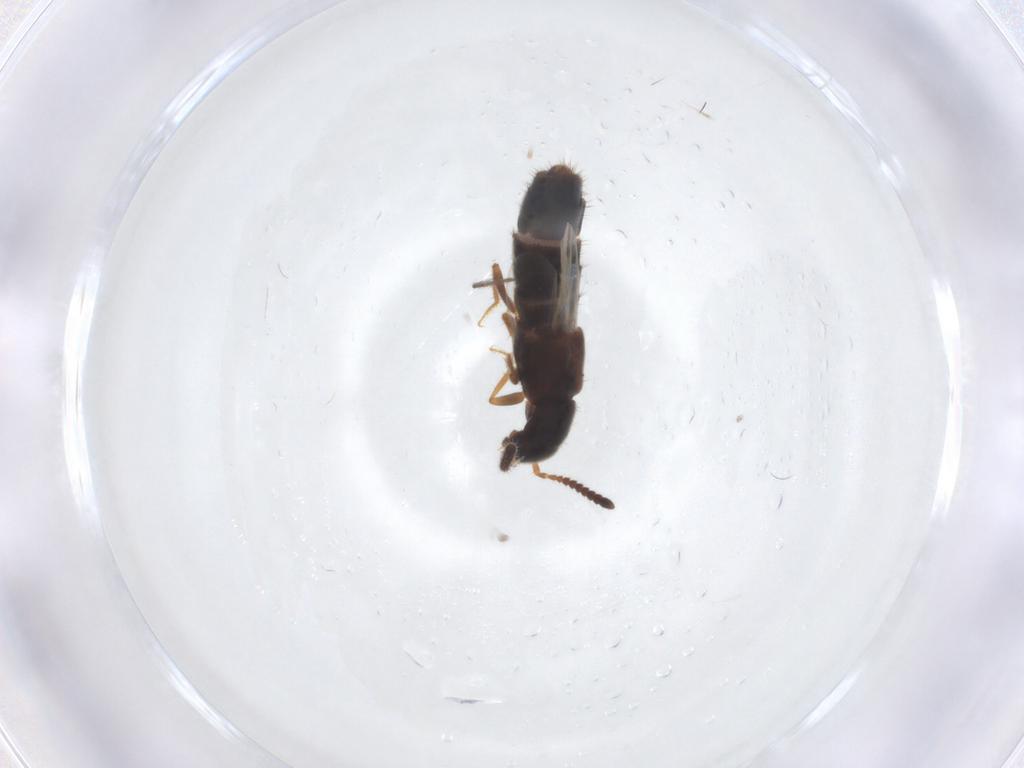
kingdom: Animalia
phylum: Arthropoda
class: Insecta
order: Coleoptera
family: Staphylinidae
